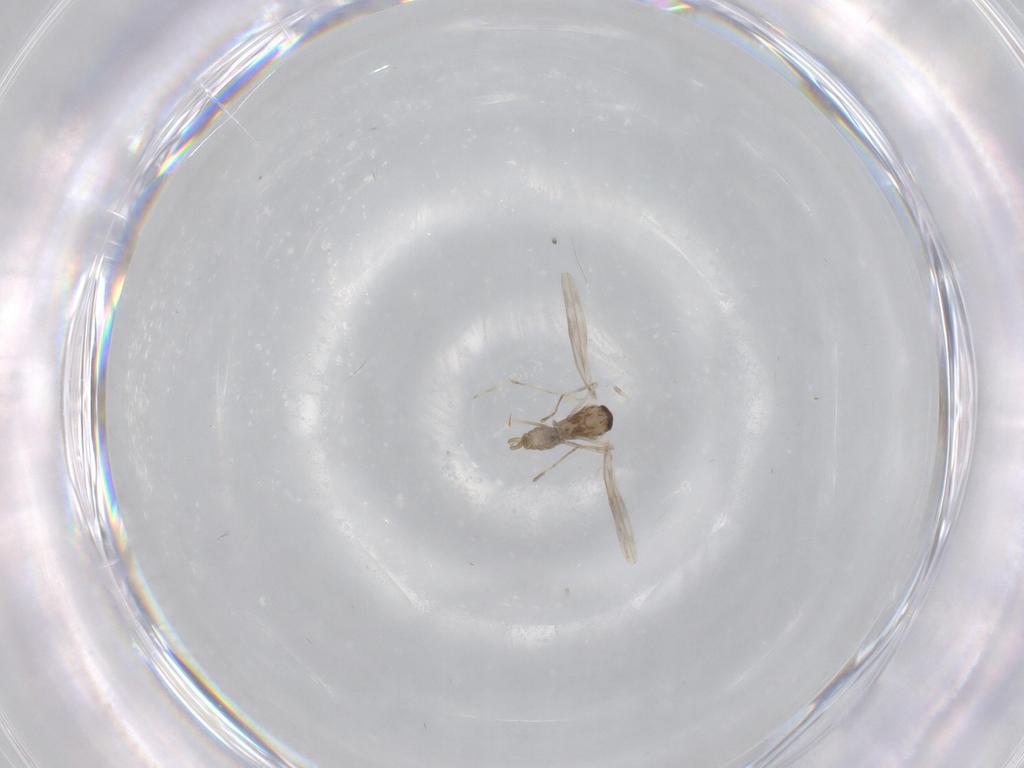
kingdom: Animalia
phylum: Arthropoda
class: Insecta
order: Diptera
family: Cecidomyiidae
